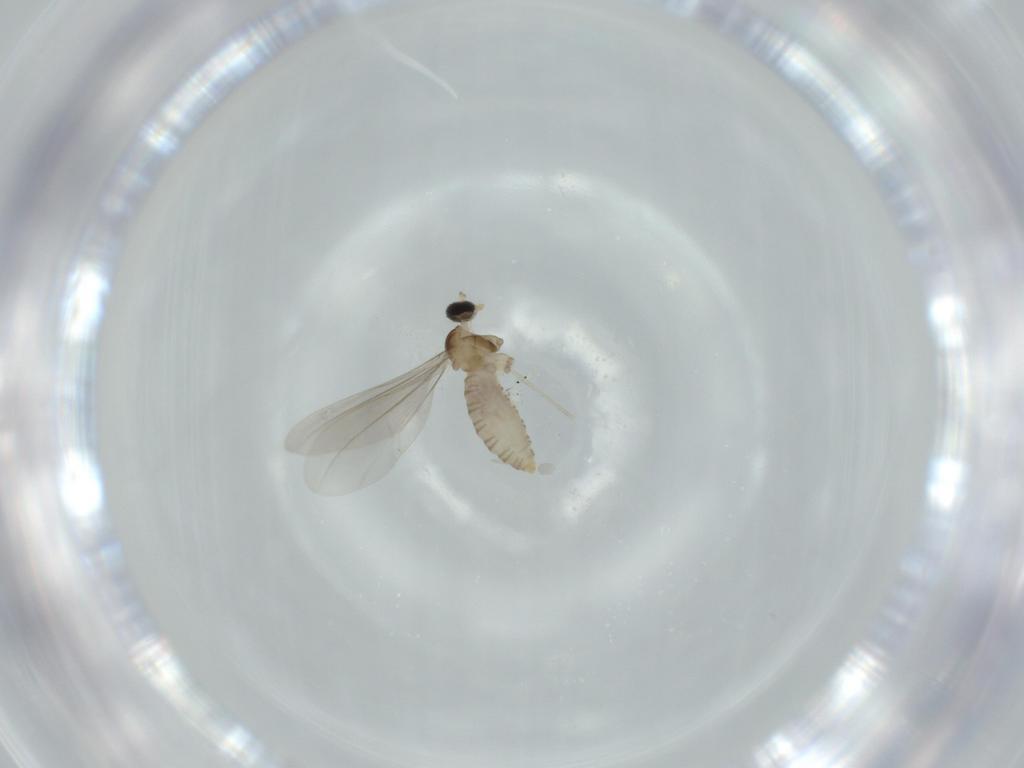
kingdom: Animalia
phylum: Arthropoda
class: Insecta
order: Diptera
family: Cecidomyiidae
